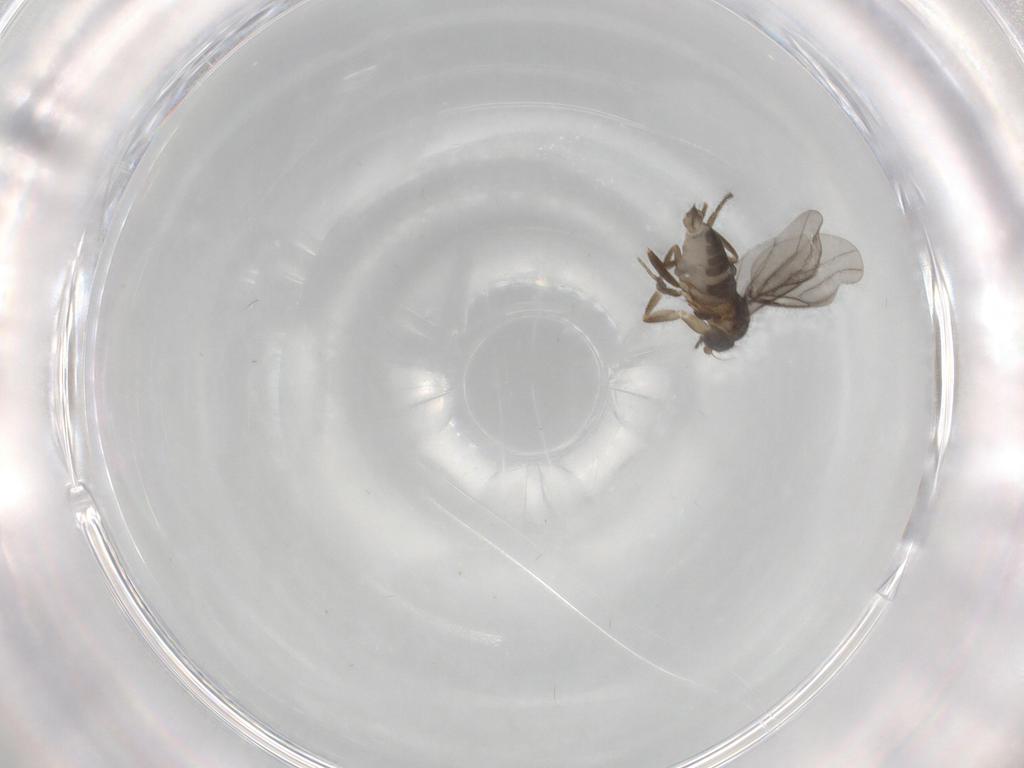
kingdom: Animalia
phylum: Arthropoda
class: Insecta
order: Diptera
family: Phoridae
